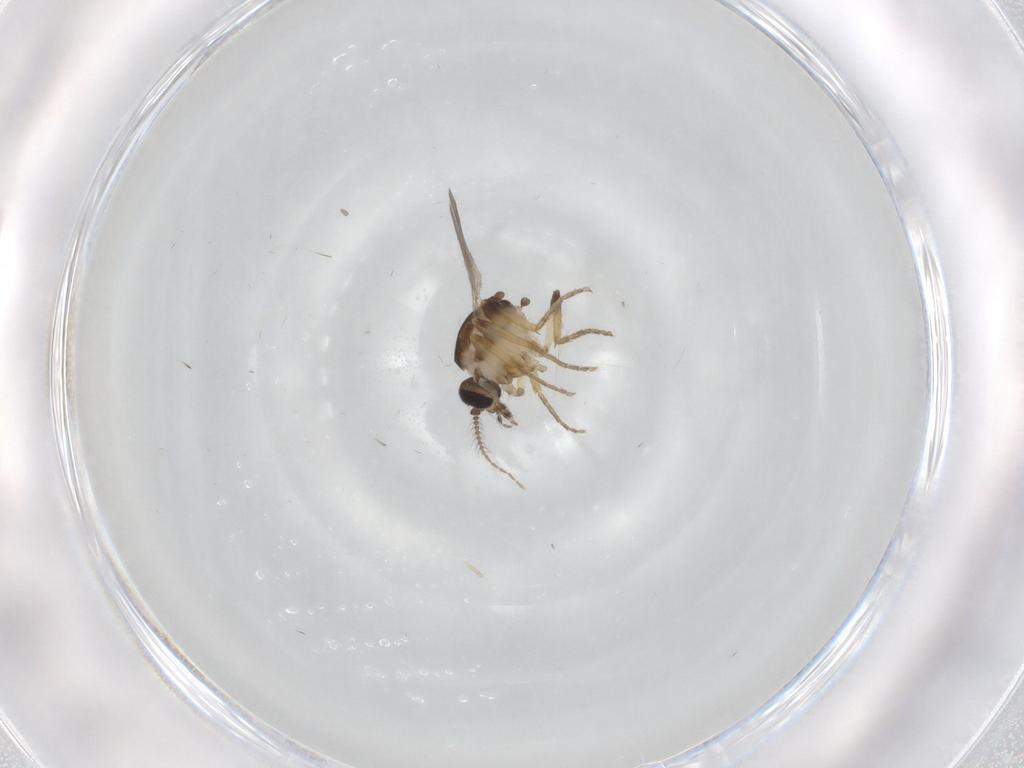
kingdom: Animalia
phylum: Arthropoda
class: Insecta
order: Diptera
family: Ceratopogonidae
